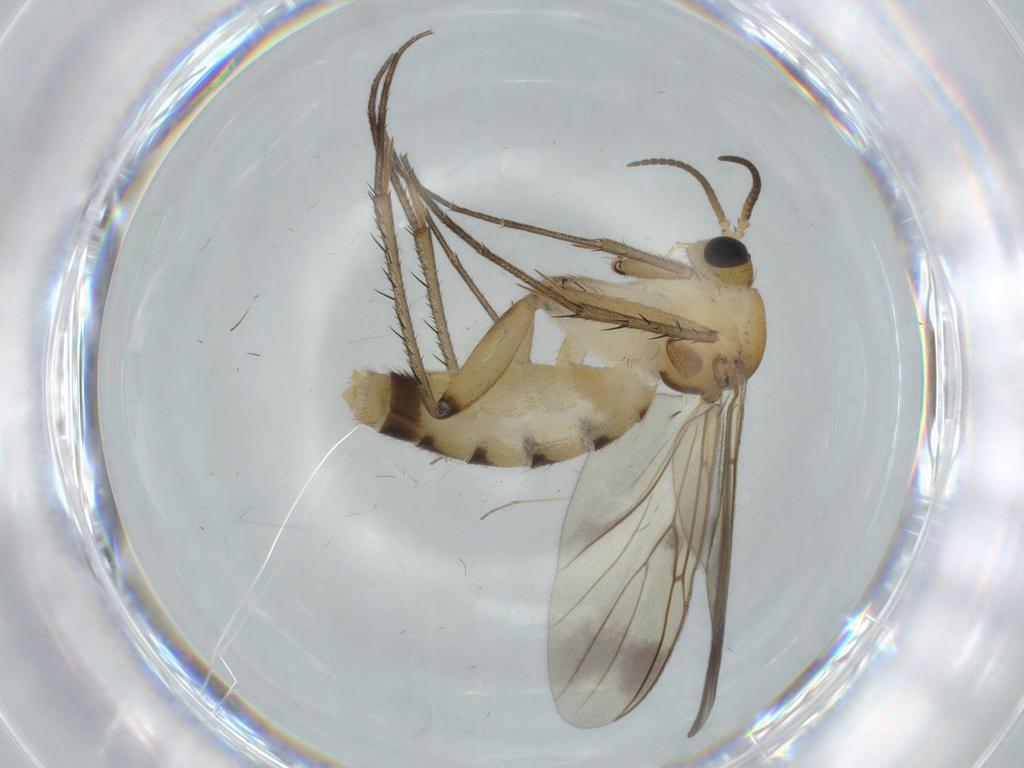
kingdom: Animalia
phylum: Arthropoda
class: Insecta
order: Diptera
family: Cecidomyiidae
